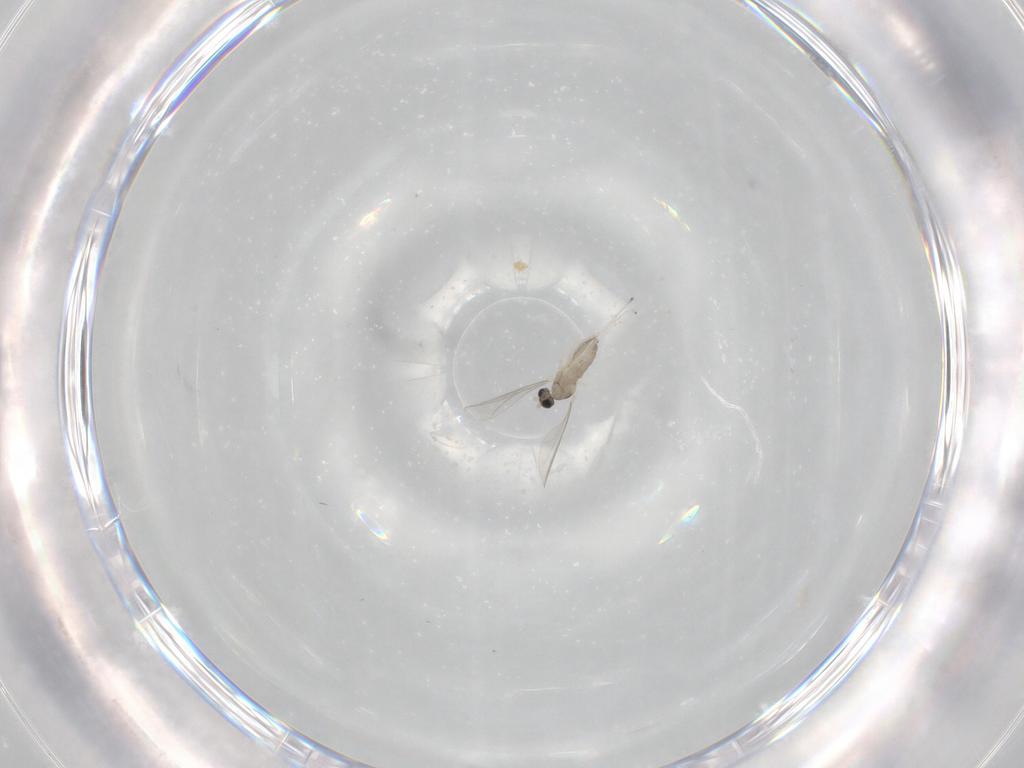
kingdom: Animalia
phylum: Arthropoda
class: Insecta
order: Diptera
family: Cecidomyiidae
